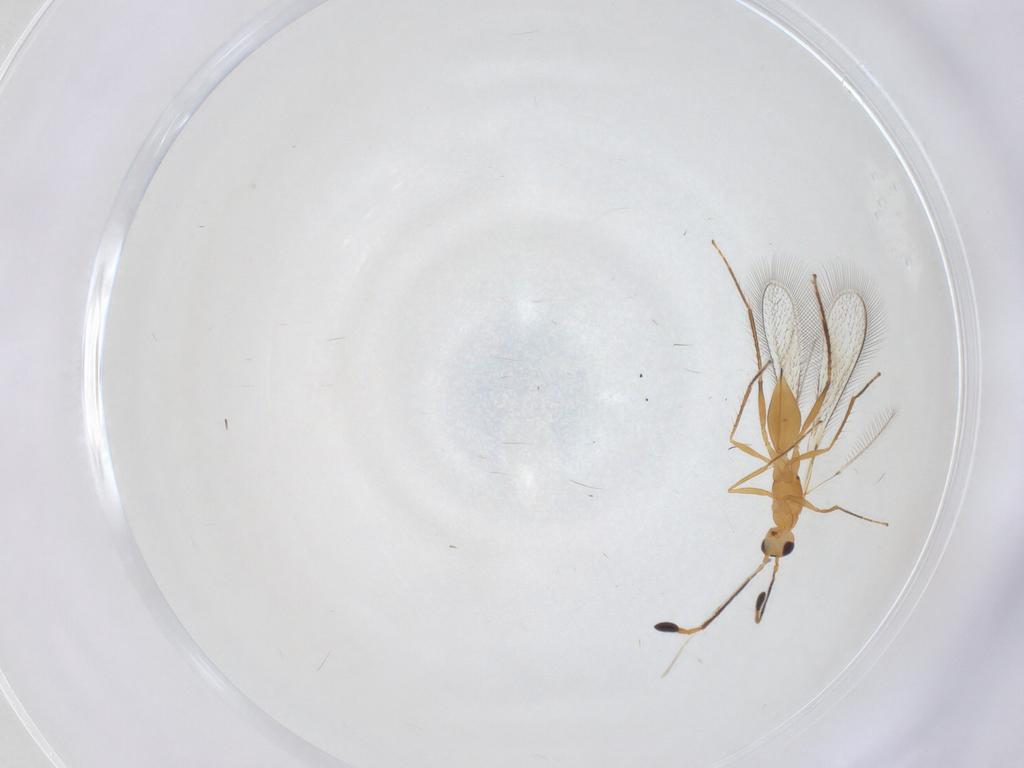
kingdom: Animalia
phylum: Arthropoda
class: Insecta
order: Hymenoptera
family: Mymaridae
